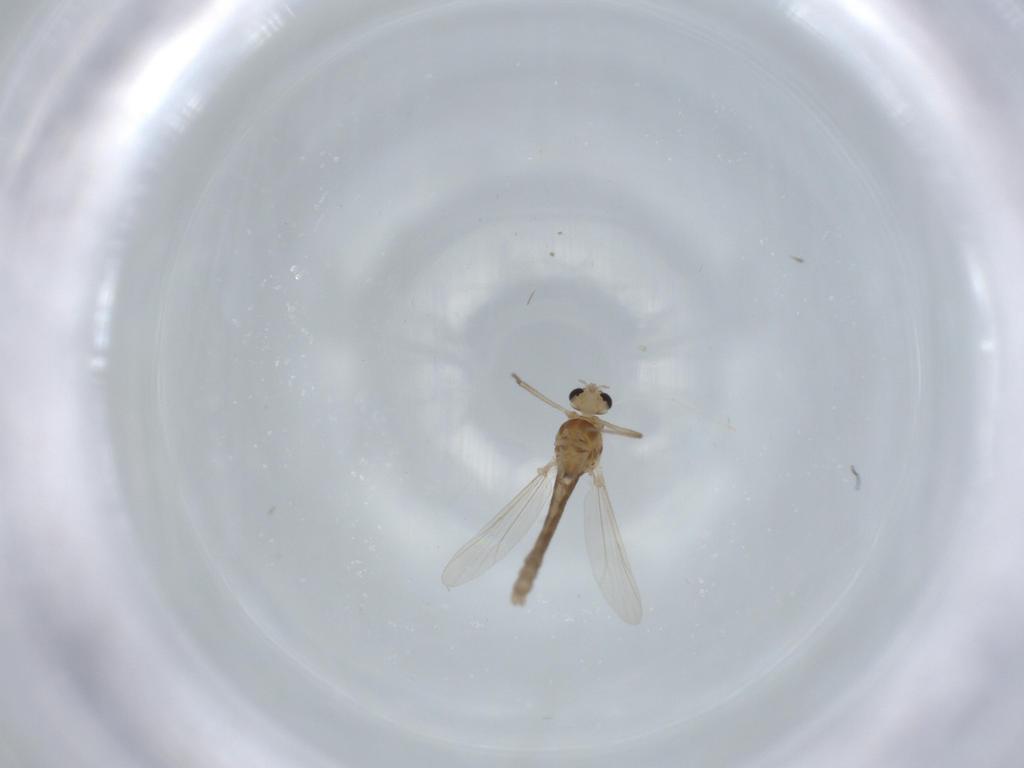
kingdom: Animalia
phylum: Arthropoda
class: Insecta
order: Diptera
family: Chironomidae
